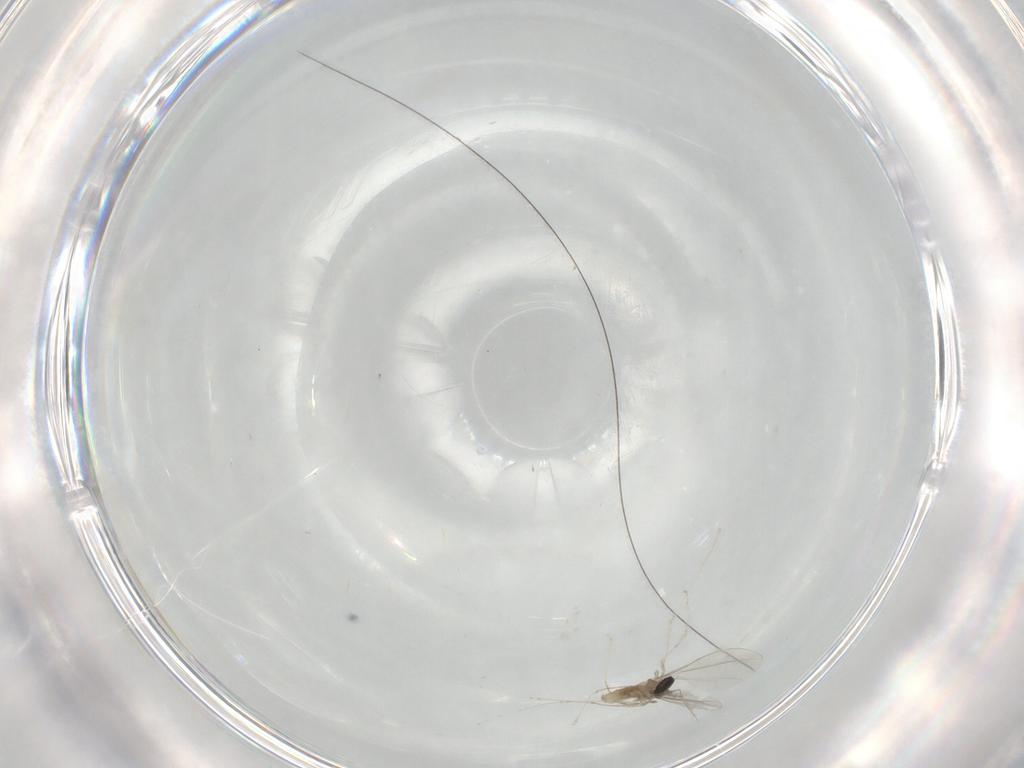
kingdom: Animalia
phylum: Arthropoda
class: Insecta
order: Diptera
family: Cecidomyiidae
